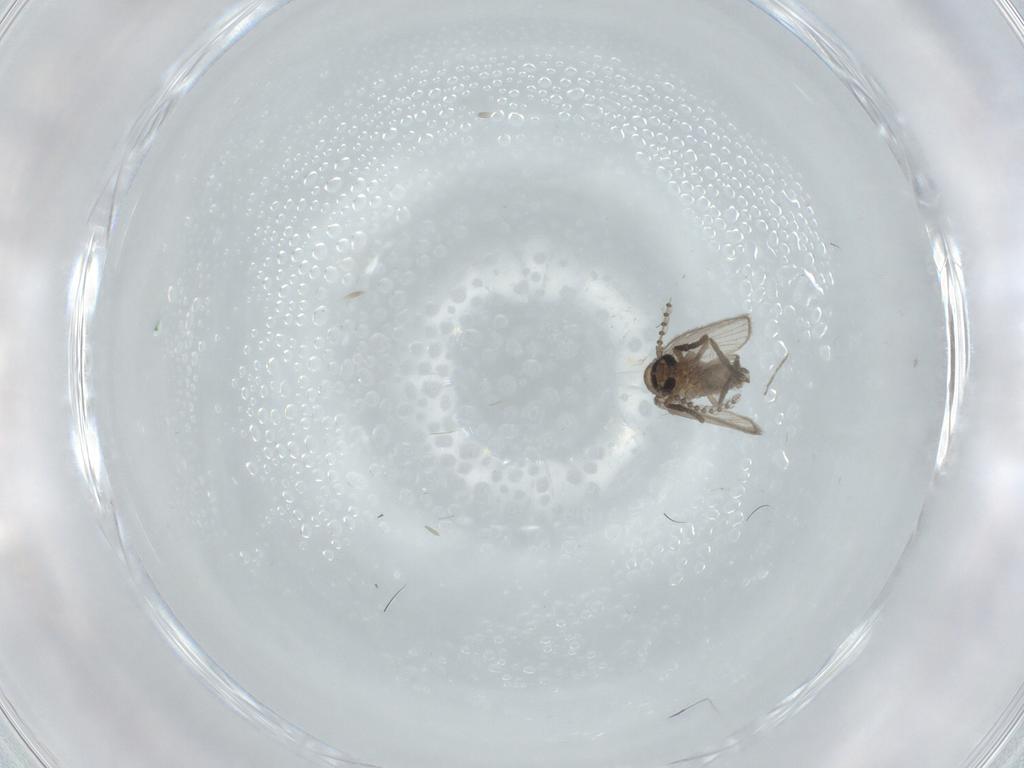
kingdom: Animalia
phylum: Arthropoda
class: Insecta
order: Diptera
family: Psychodidae
